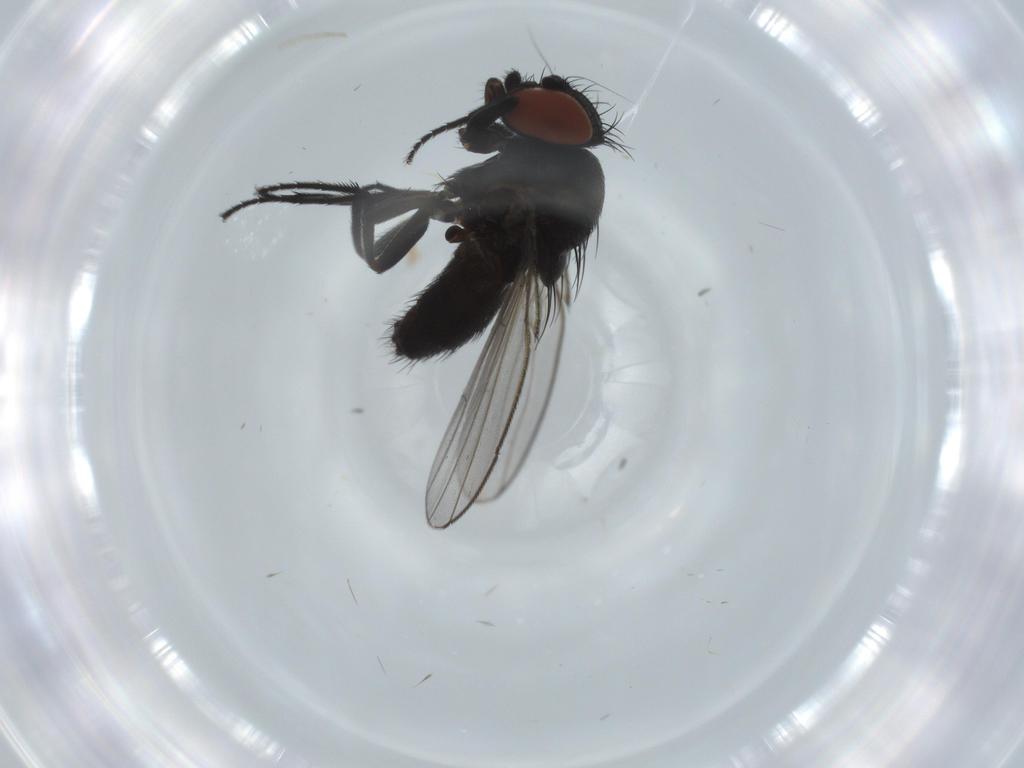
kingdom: Animalia
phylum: Arthropoda
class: Insecta
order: Diptera
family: Milichiidae
